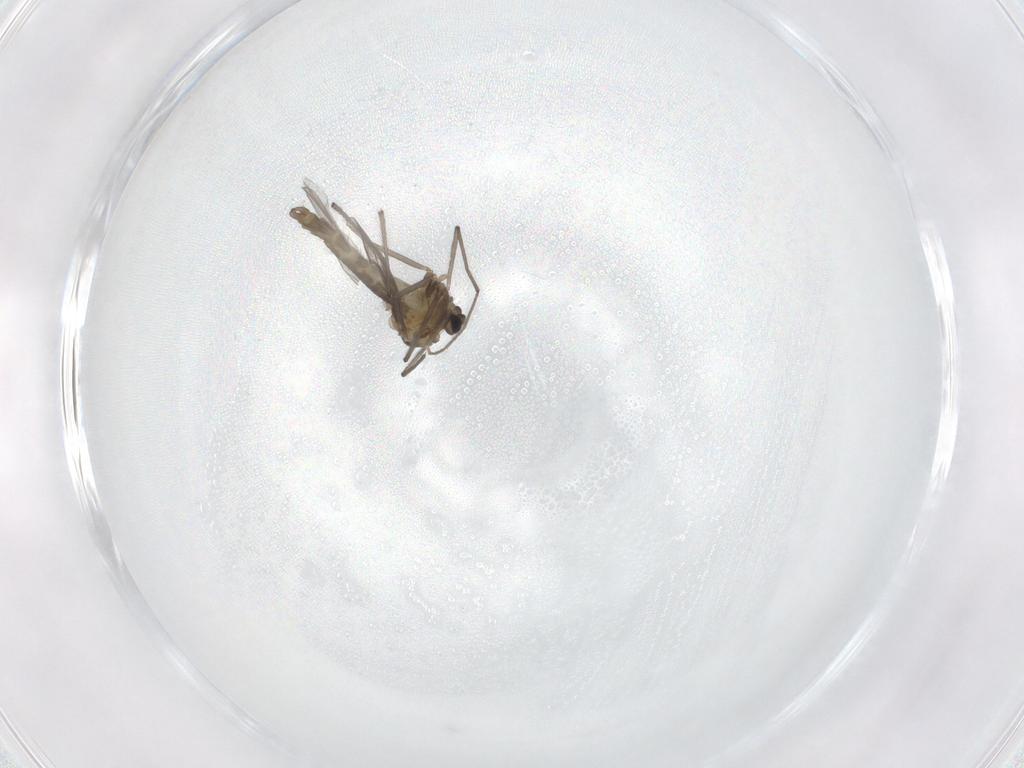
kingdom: Animalia
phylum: Arthropoda
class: Insecta
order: Diptera
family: Chironomidae
